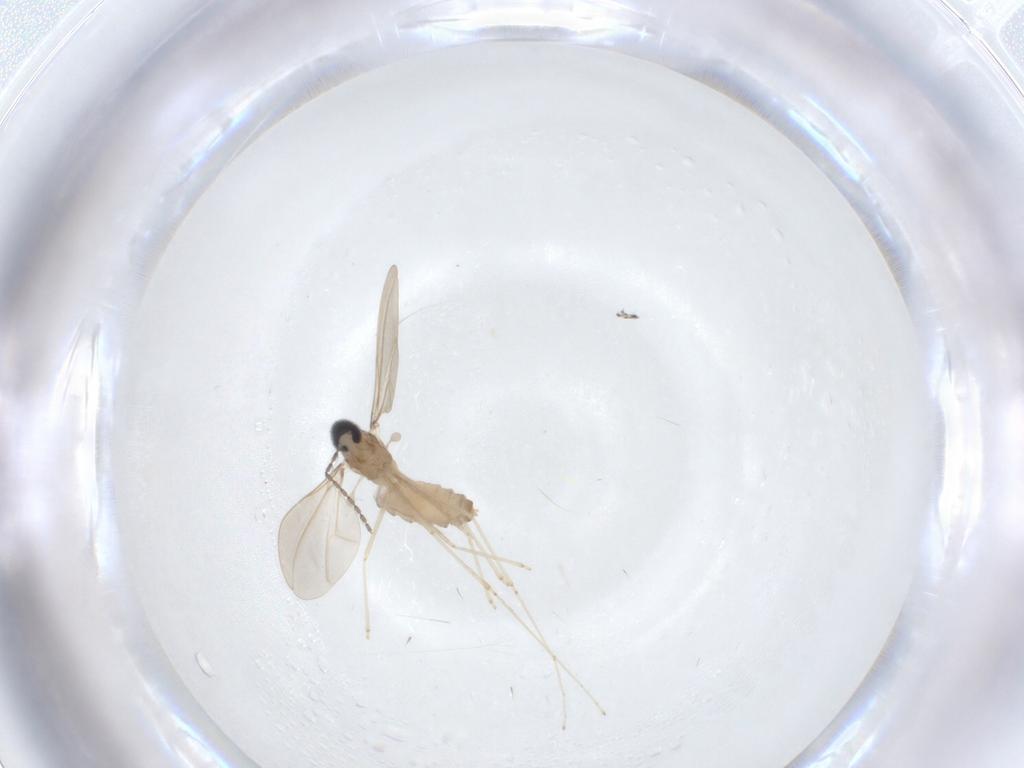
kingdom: Animalia
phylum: Arthropoda
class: Insecta
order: Diptera
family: Cecidomyiidae
